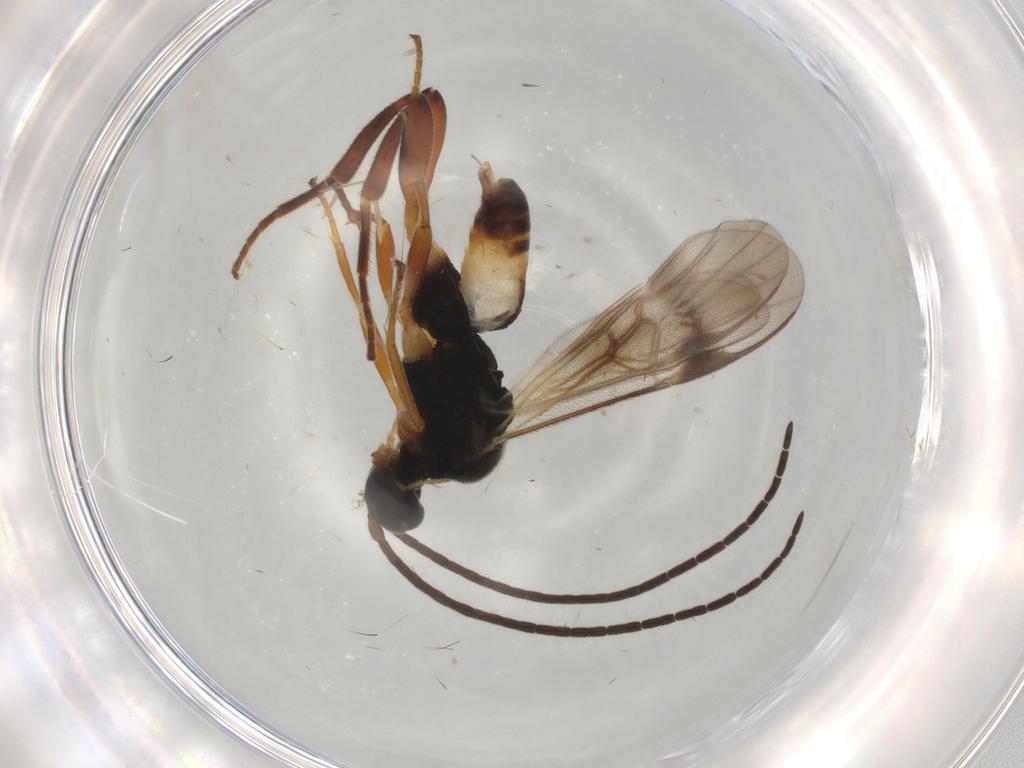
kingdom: Animalia
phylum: Arthropoda
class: Insecta
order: Hymenoptera
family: Braconidae
